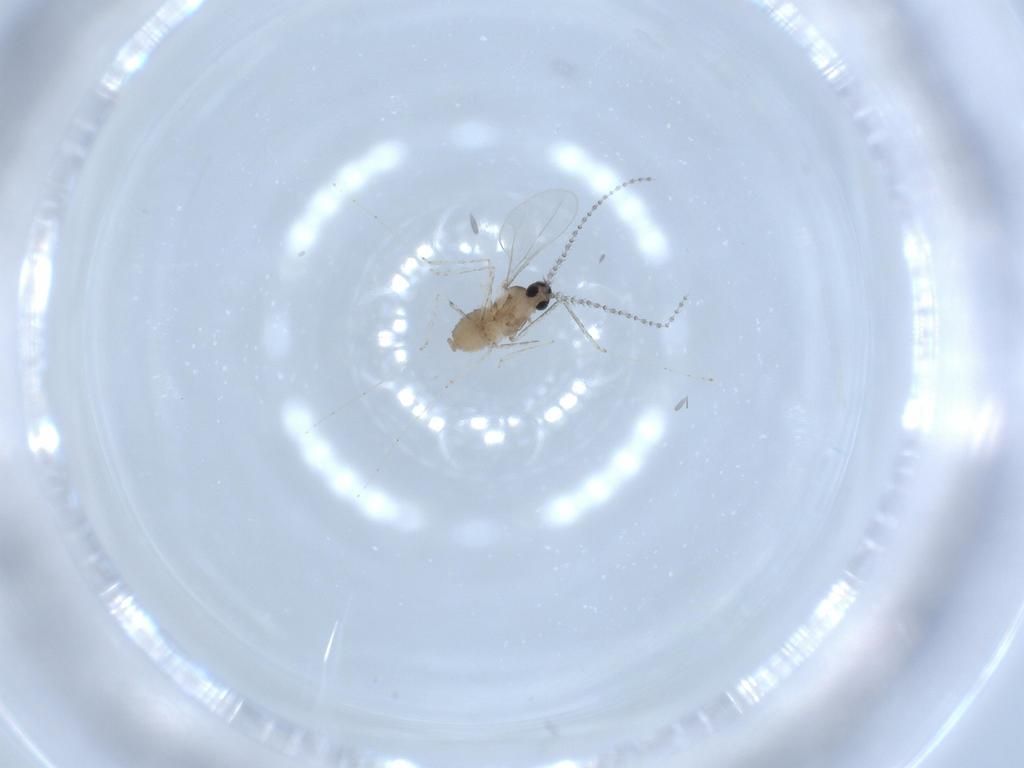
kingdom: Animalia
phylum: Arthropoda
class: Insecta
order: Diptera
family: Cecidomyiidae
